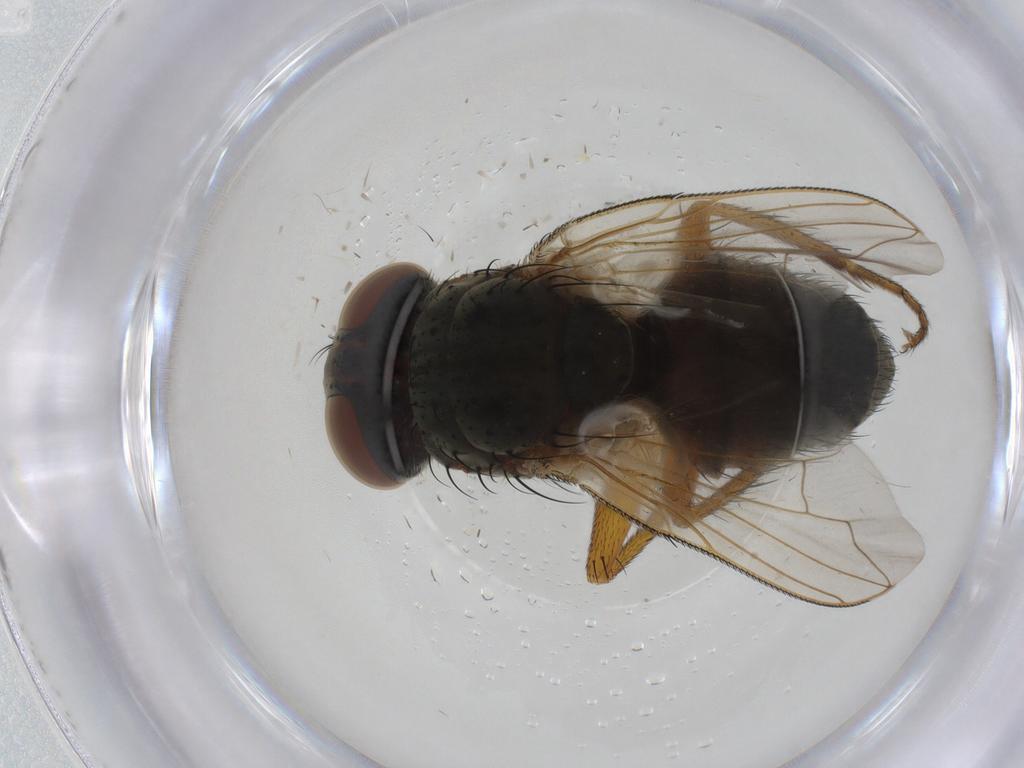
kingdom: Animalia
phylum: Arthropoda
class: Insecta
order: Diptera
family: Sarcophagidae
